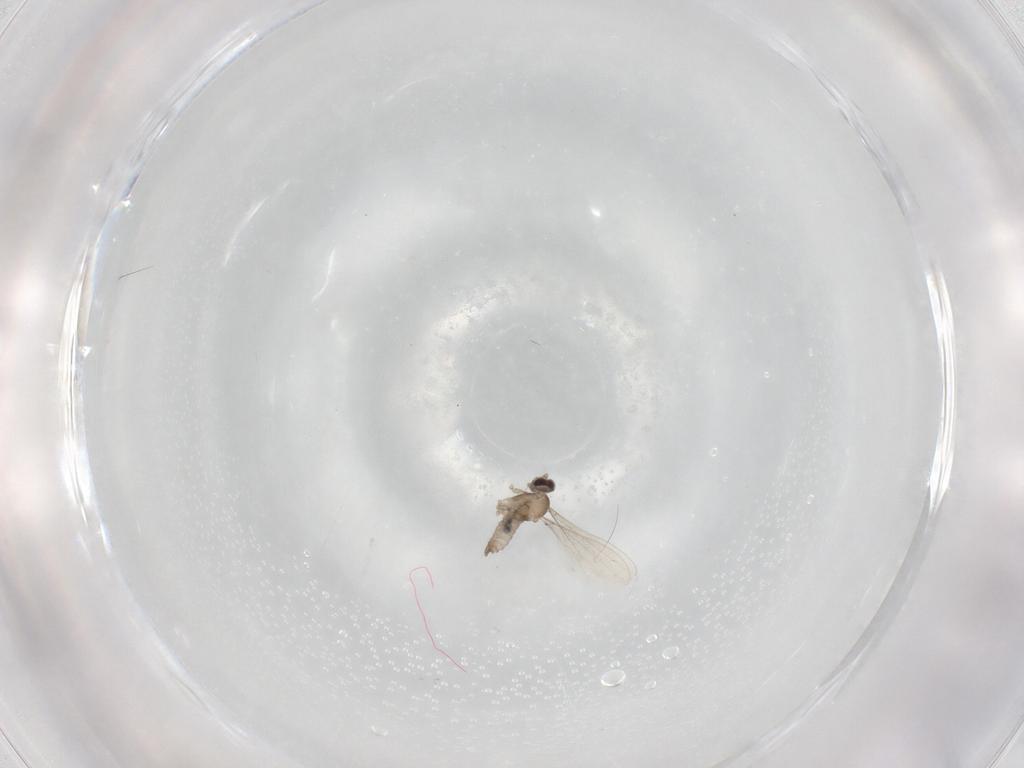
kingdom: Animalia
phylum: Arthropoda
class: Insecta
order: Diptera
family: Cecidomyiidae
